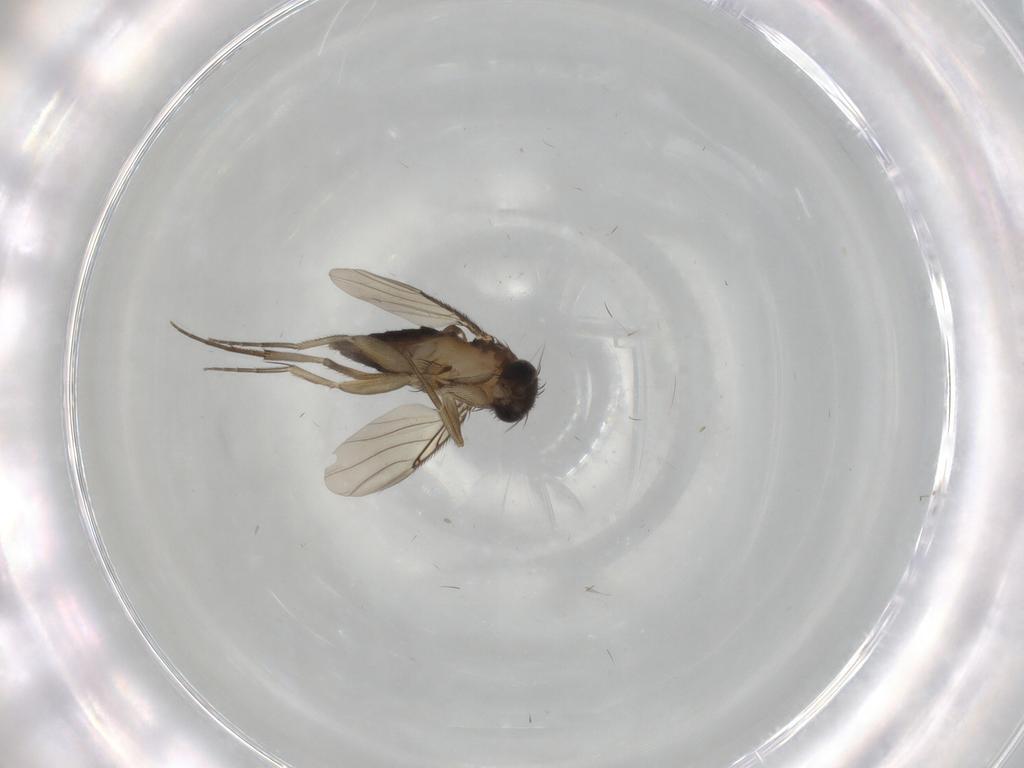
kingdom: Animalia
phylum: Arthropoda
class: Insecta
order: Diptera
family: Phoridae
